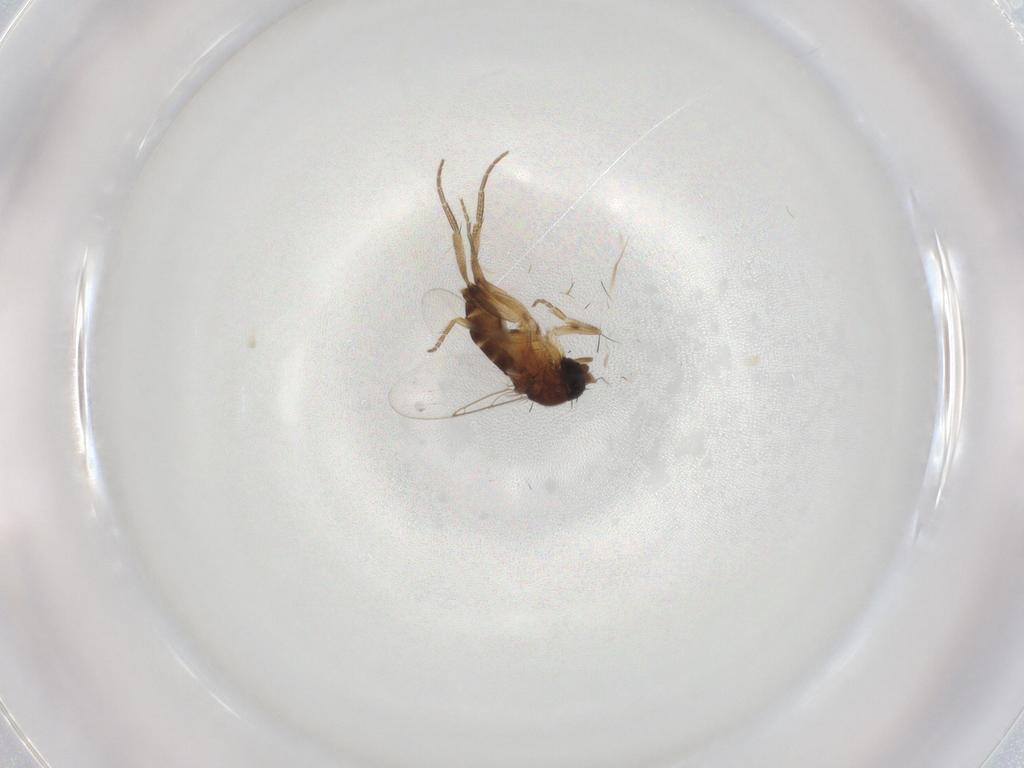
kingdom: Animalia
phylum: Arthropoda
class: Insecta
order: Diptera
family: Phoridae
